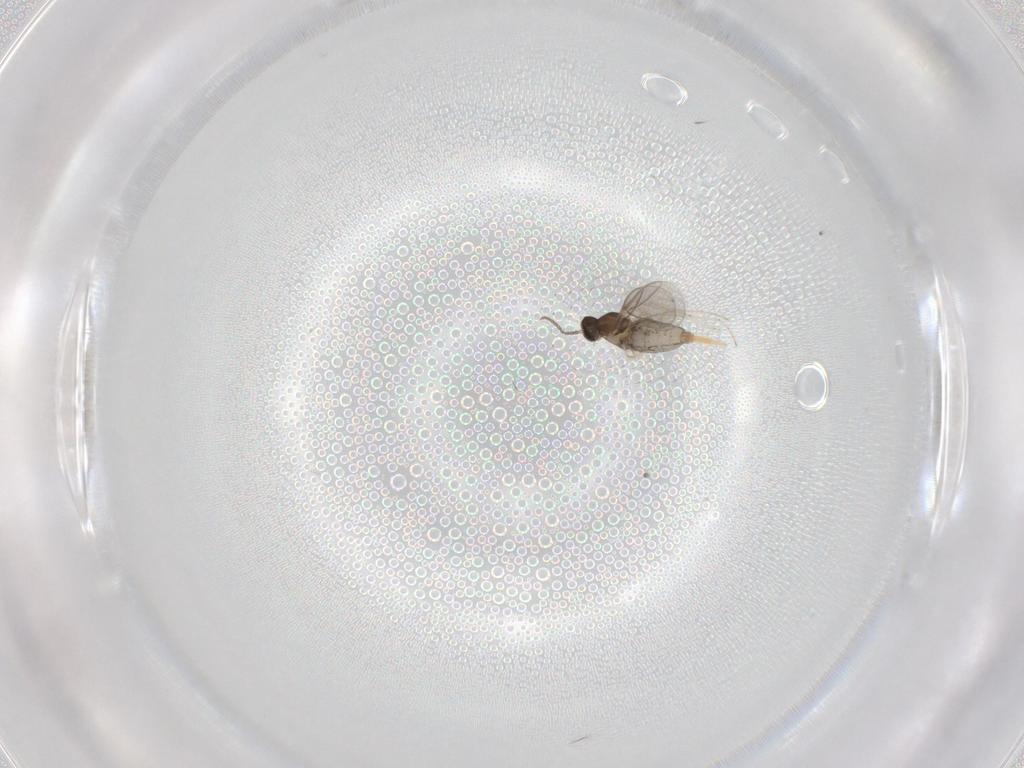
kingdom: Animalia
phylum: Arthropoda
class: Insecta
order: Diptera
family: Cecidomyiidae
